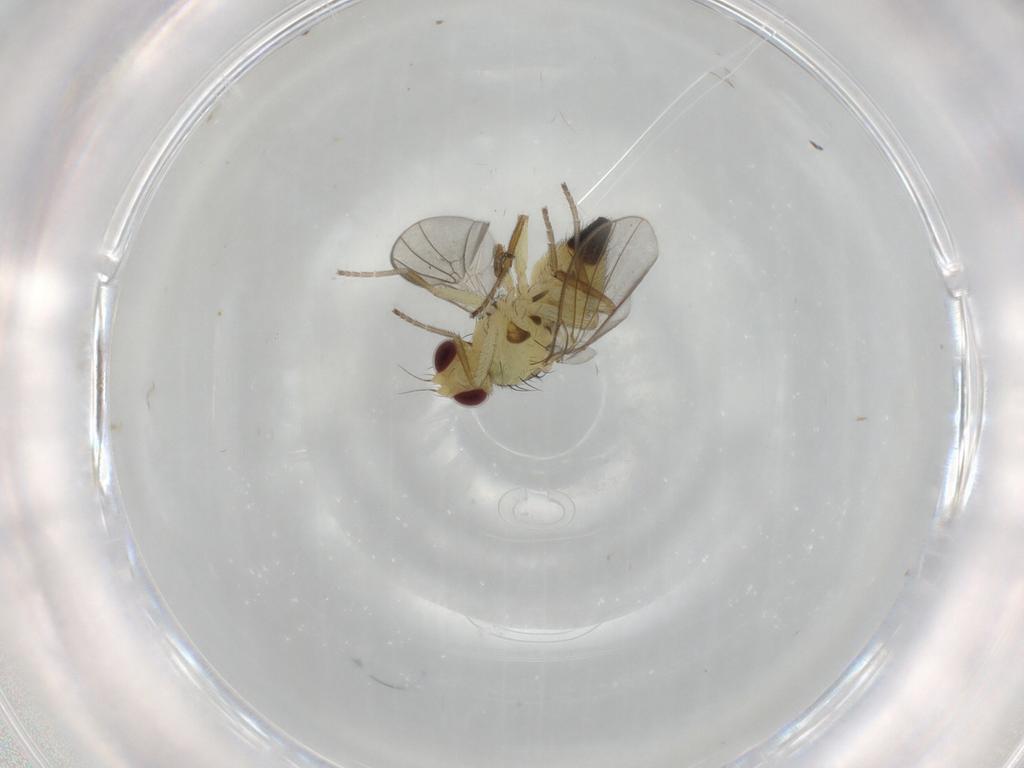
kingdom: Animalia
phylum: Arthropoda
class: Insecta
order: Diptera
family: Agromyzidae
